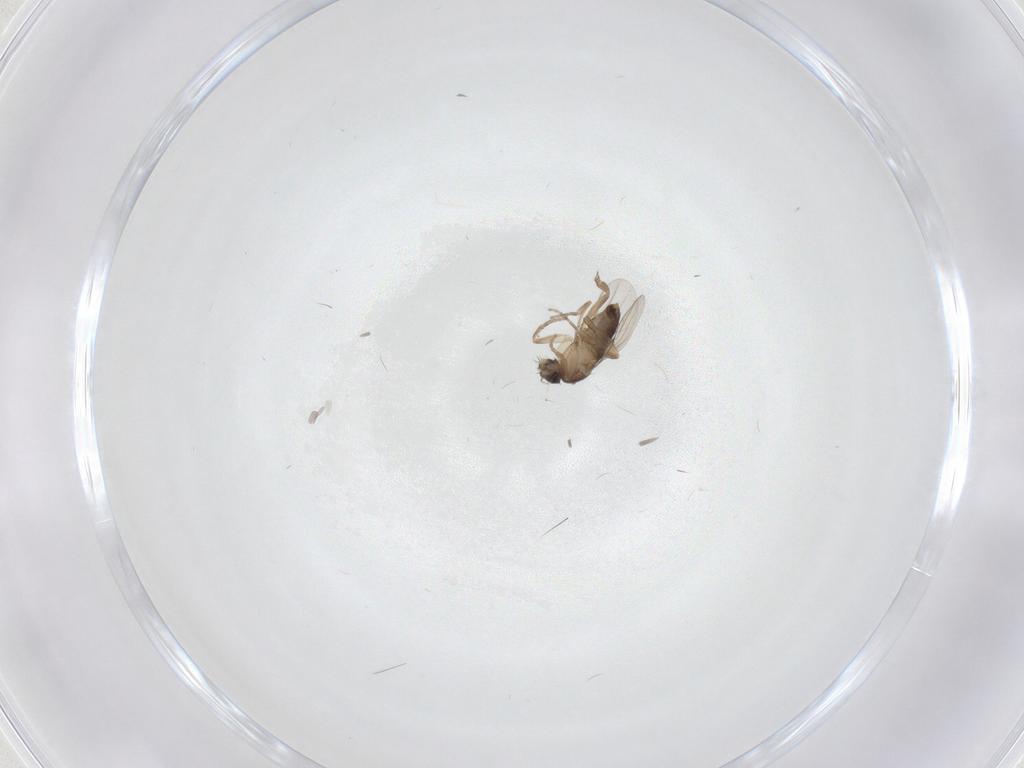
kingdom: Animalia
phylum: Arthropoda
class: Insecta
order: Diptera
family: Phoridae
